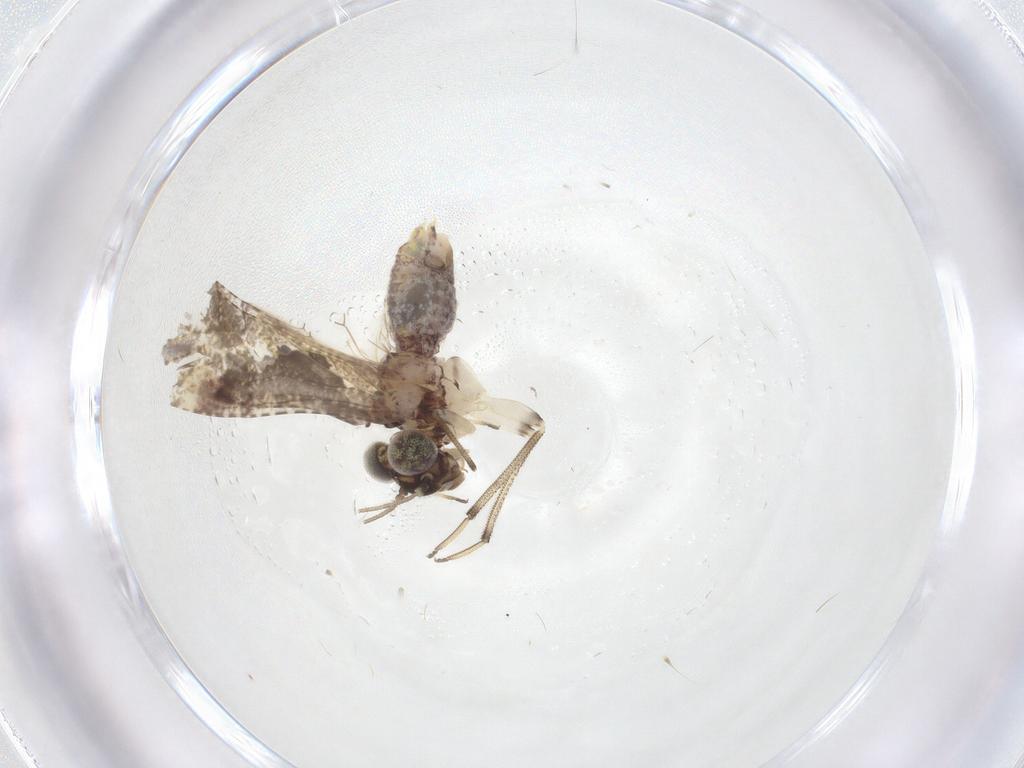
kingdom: Animalia
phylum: Arthropoda
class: Insecta
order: Psocodea
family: Lepidopsocidae
